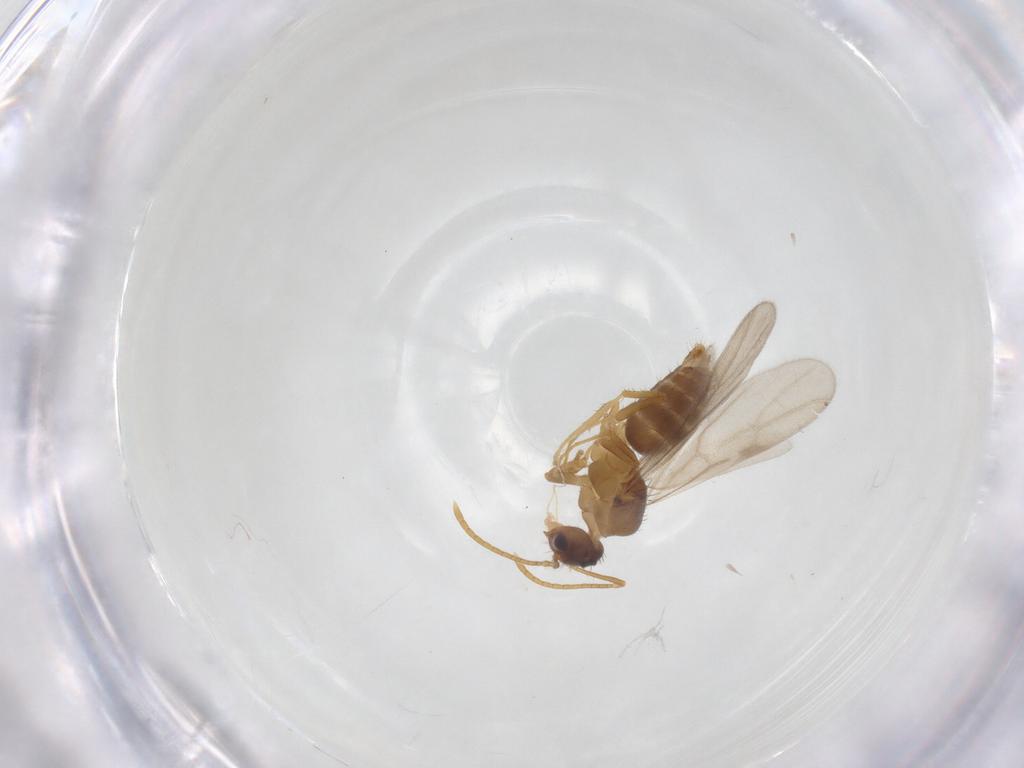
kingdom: Animalia
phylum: Arthropoda
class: Insecta
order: Hymenoptera
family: Formicidae
